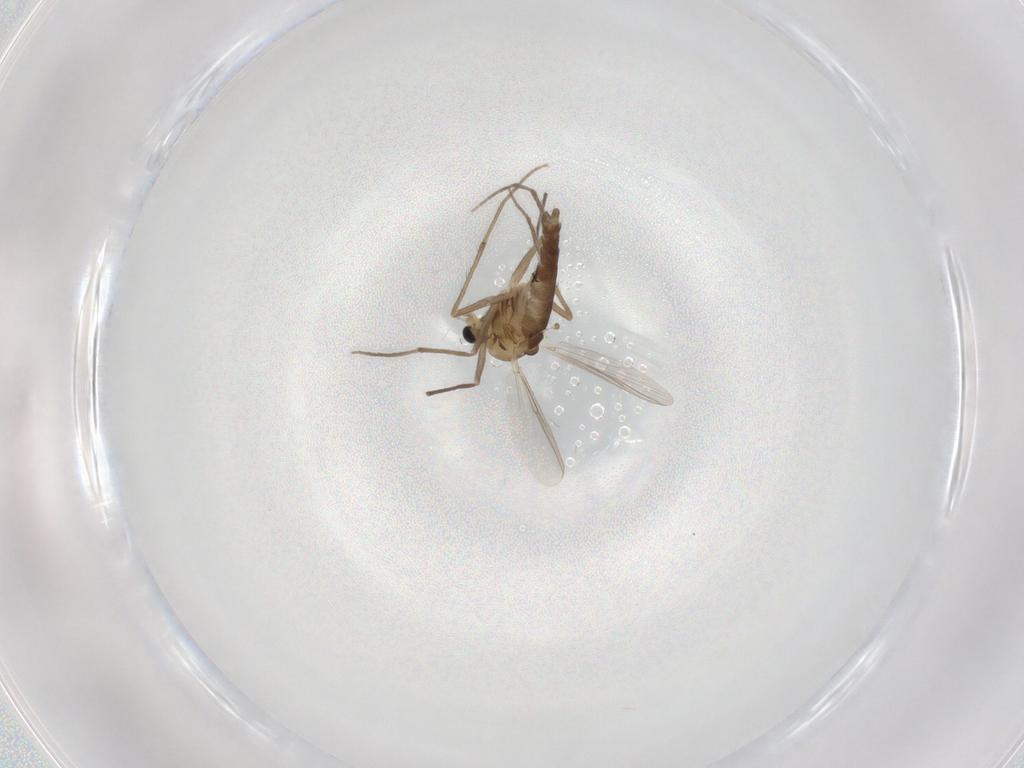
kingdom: Animalia
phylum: Arthropoda
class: Insecta
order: Diptera
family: Chironomidae
